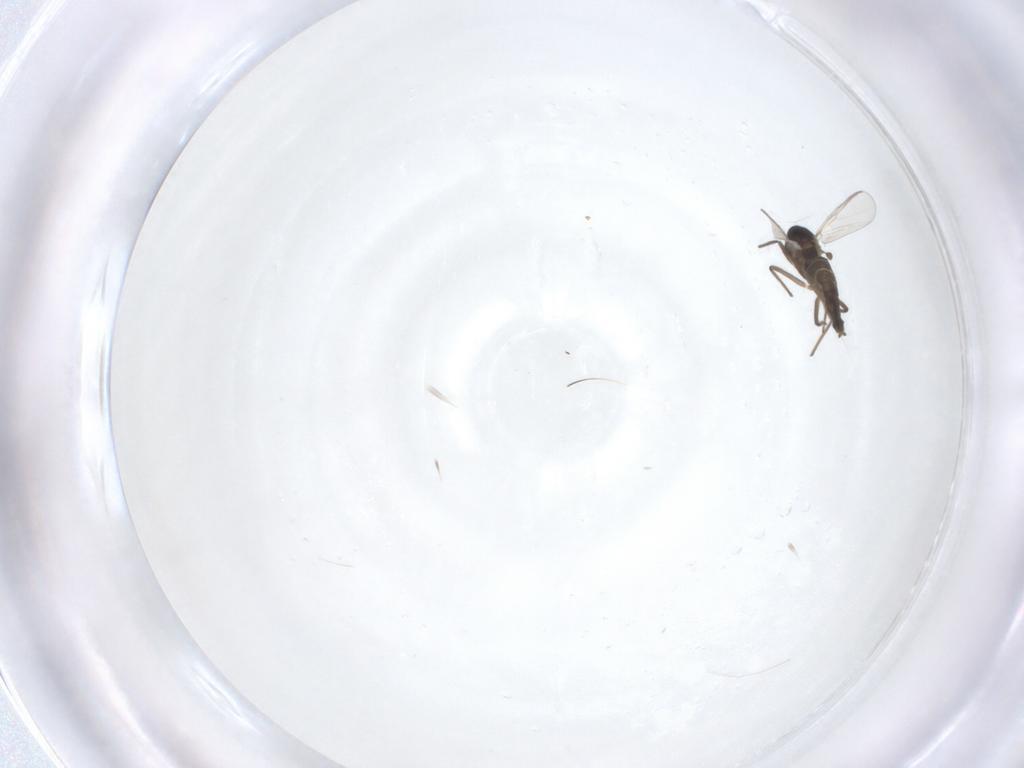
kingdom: Animalia
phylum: Arthropoda
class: Insecta
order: Diptera
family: Chironomidae
